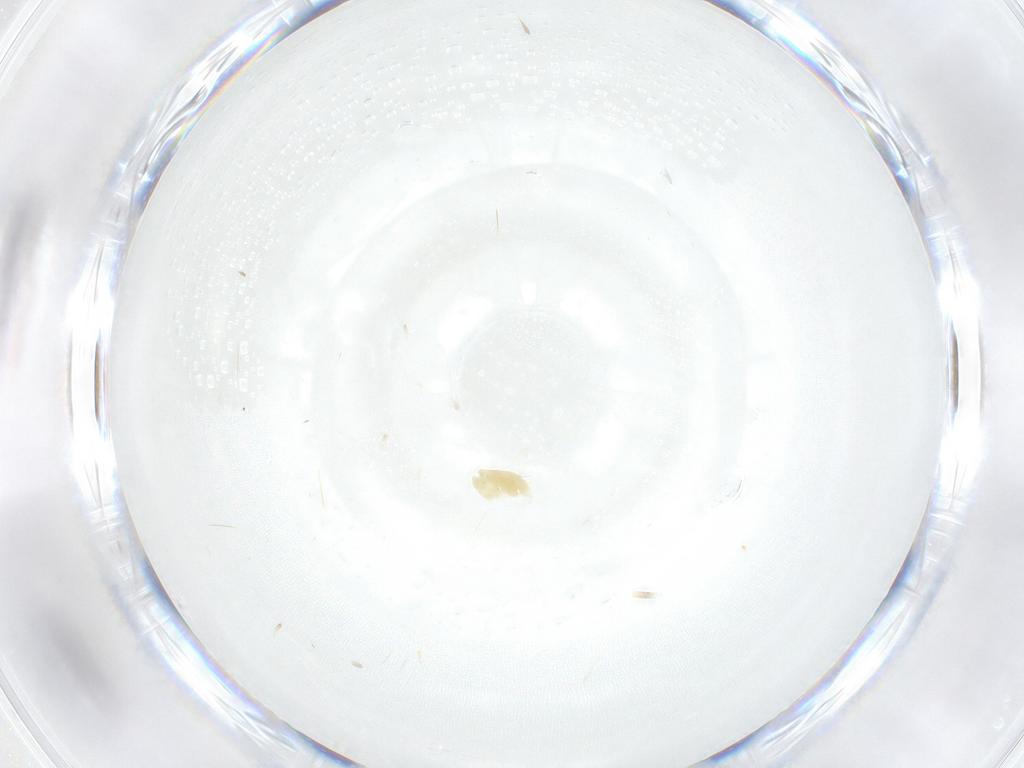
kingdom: Animalia
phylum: Arthropoda
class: Arachnida
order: Trombidiformes
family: Eupodidae
